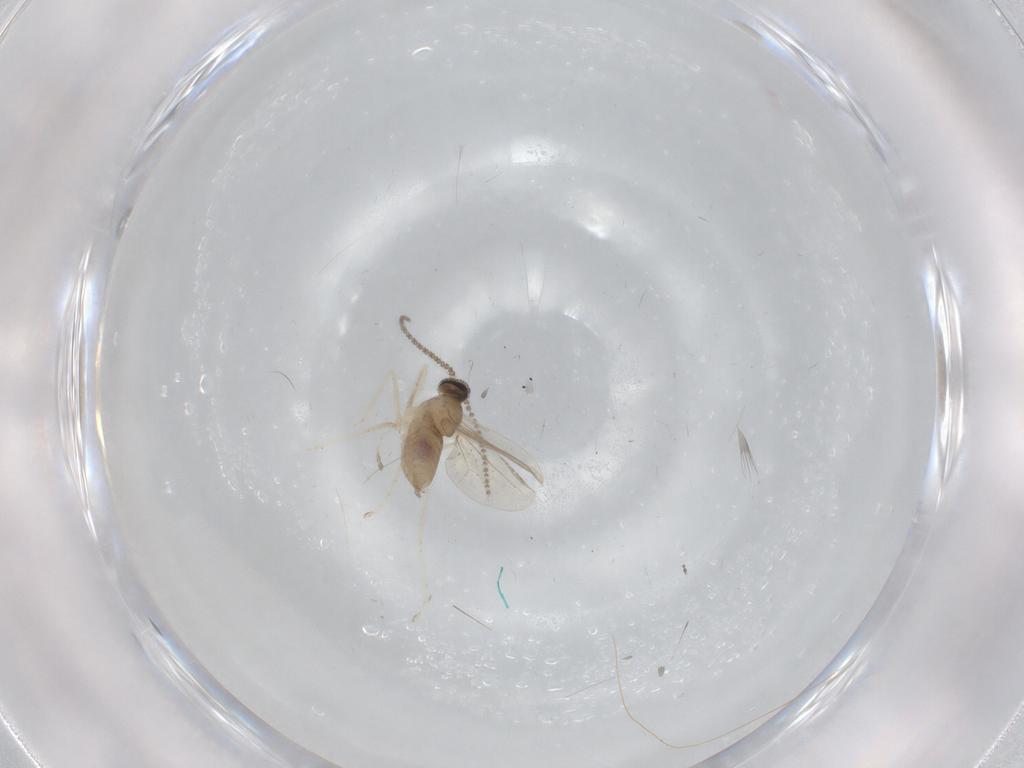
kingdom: Animalia
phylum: Arthropoda
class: Insecta
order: Diptera
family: Cecidomyiidae
